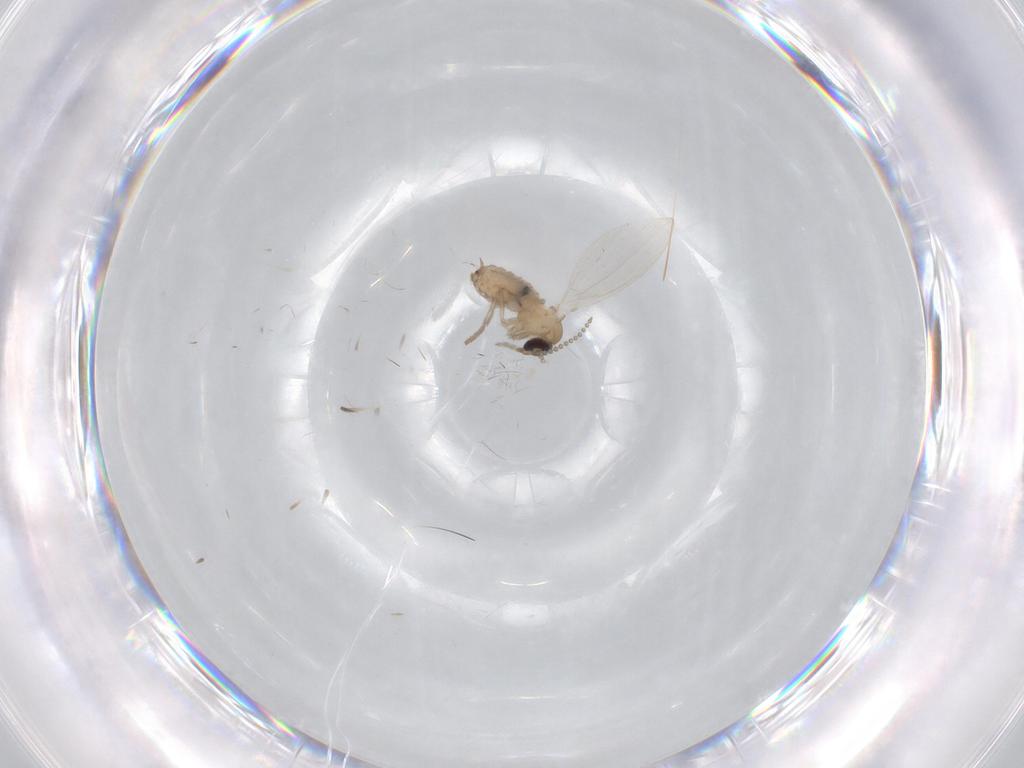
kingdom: Animalia
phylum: Arthropoda
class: Insecta
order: Diptera
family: Psychodidae
